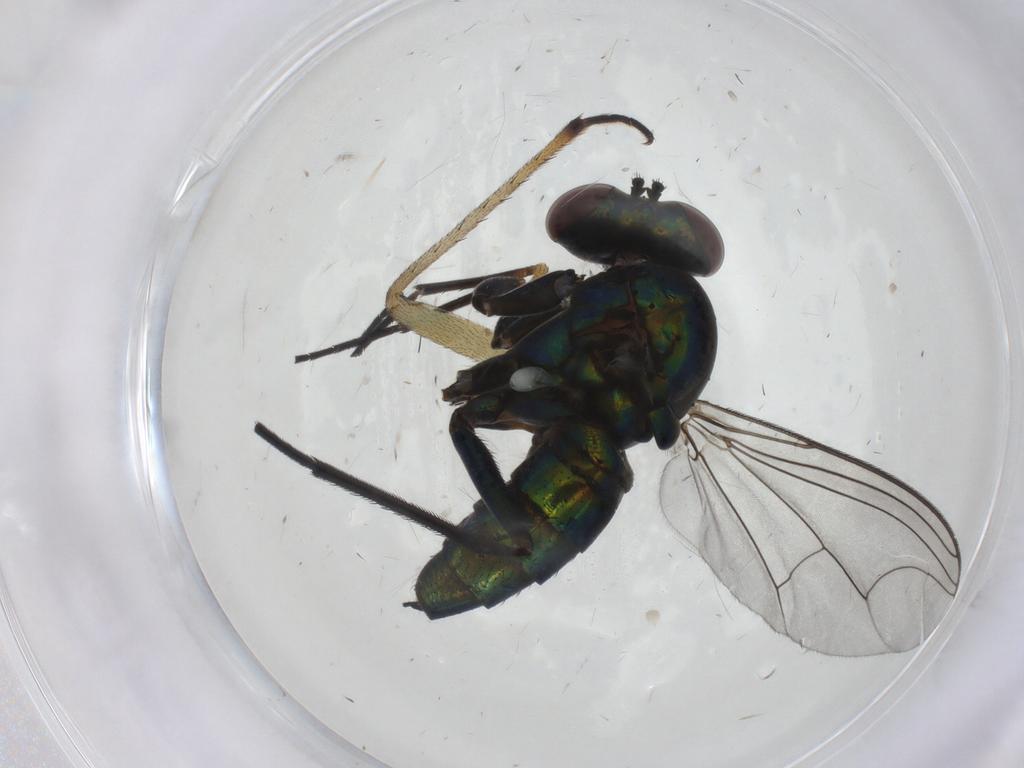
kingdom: Animalia
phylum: Arthropoda
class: Insecta
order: Diptera
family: Dolichopodidae
